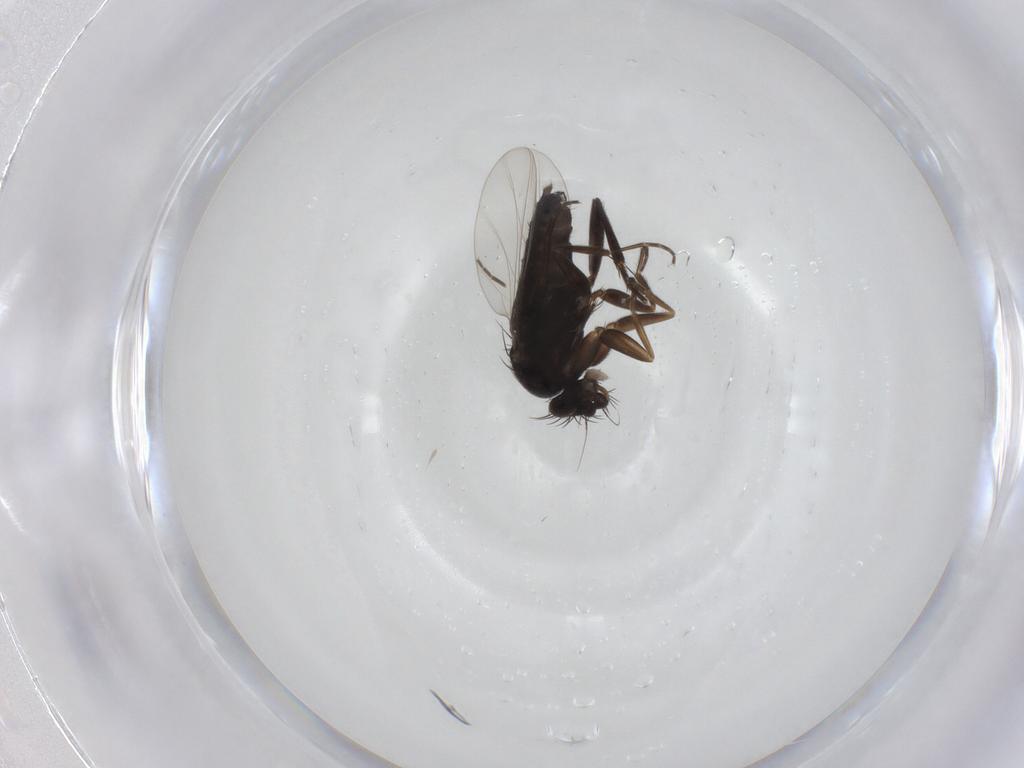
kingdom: Animalia
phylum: Arthropoda
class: Insecta
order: Diptera
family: Phoridae
